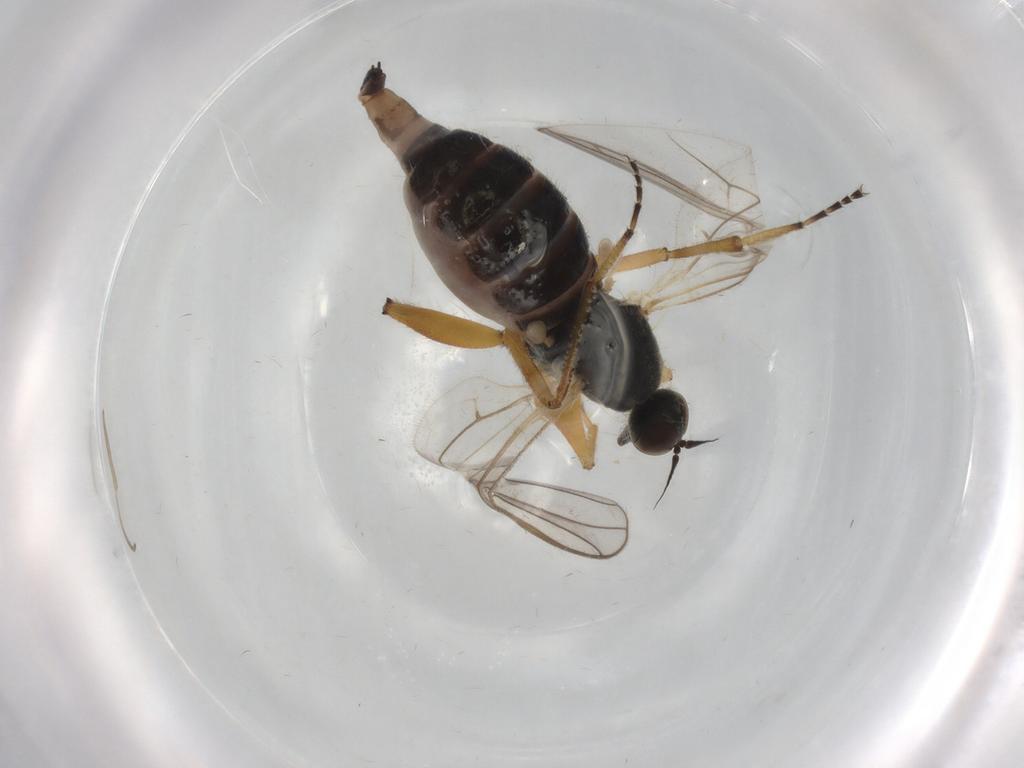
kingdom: Animalia
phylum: Arthropoda
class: Insecta
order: Diptera
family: Hybotidae
